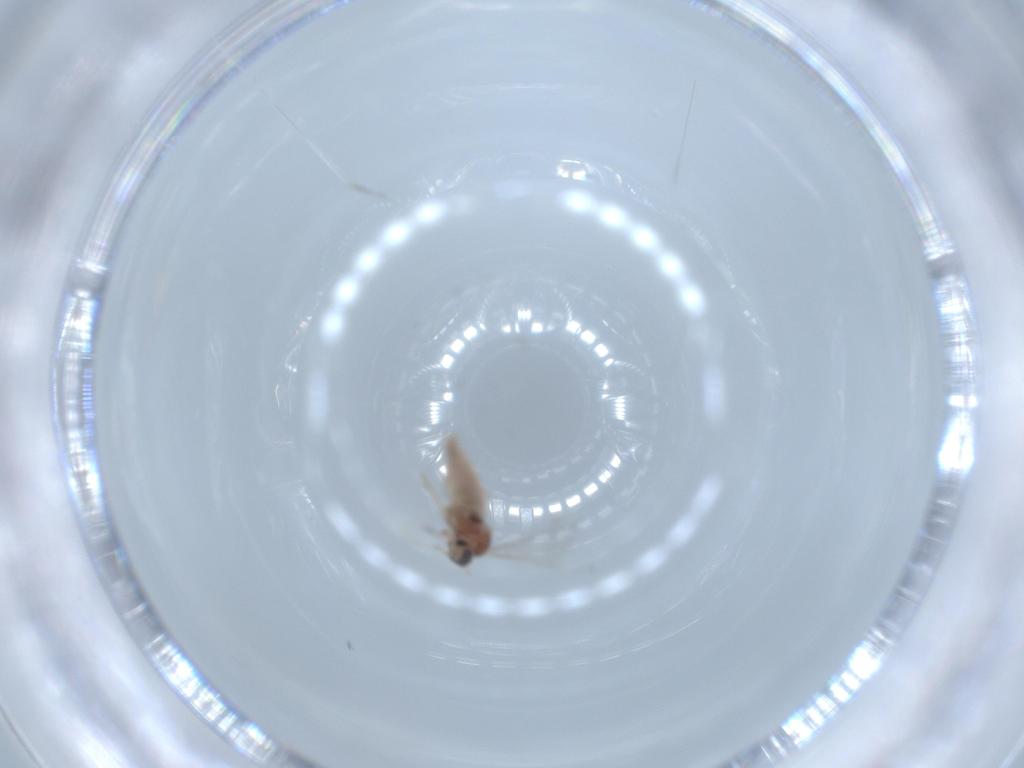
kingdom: Animalia
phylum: Arthropoda
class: Insecta
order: Diptera
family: Cecidomyiidae
